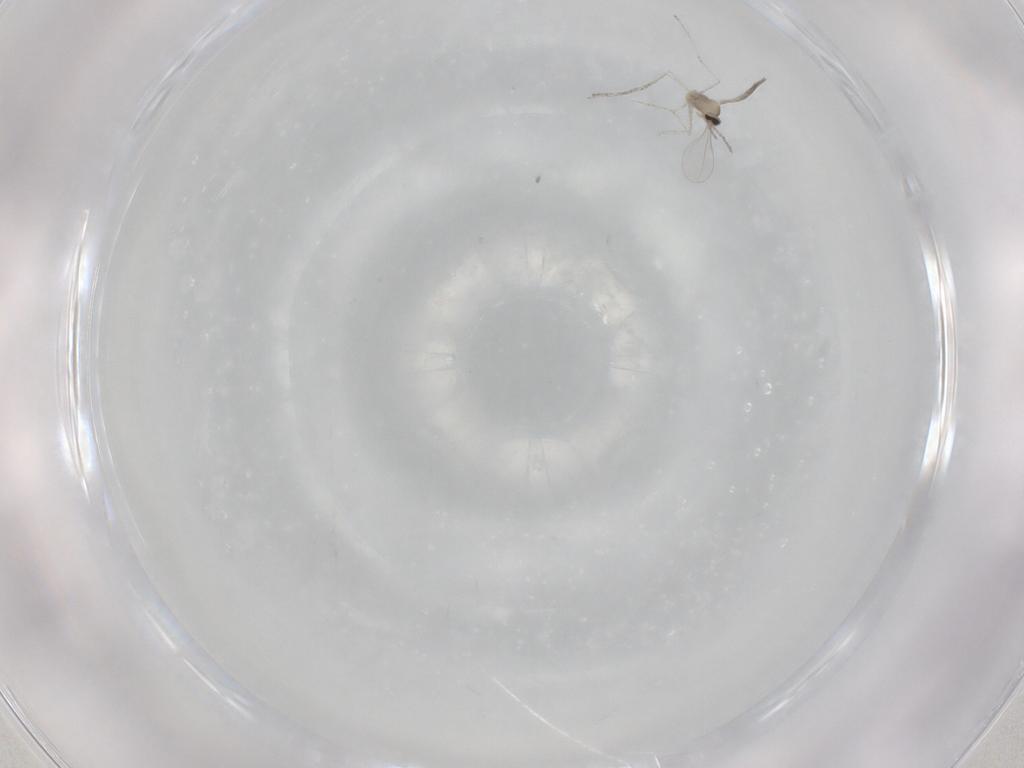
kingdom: Animalia
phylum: Arthropoda
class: Insecta
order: Diptera
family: Cecidomyiidae
